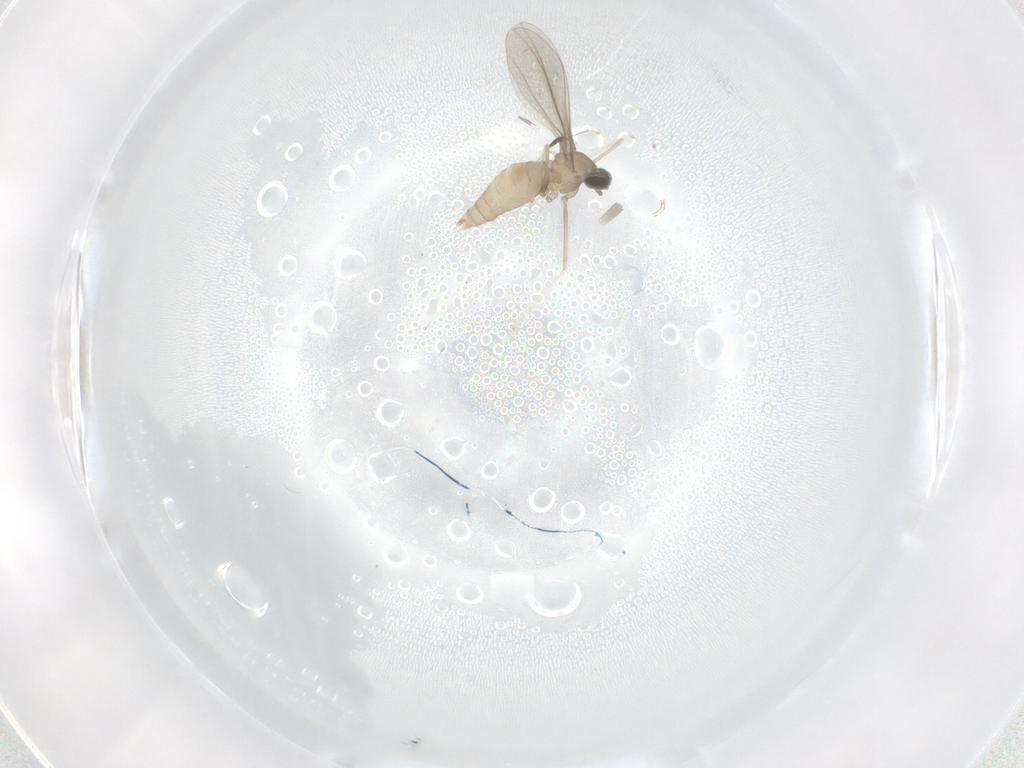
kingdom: Animalia
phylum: Arthropoda
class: Insecta
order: Diptera
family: Cecidomyiidae
